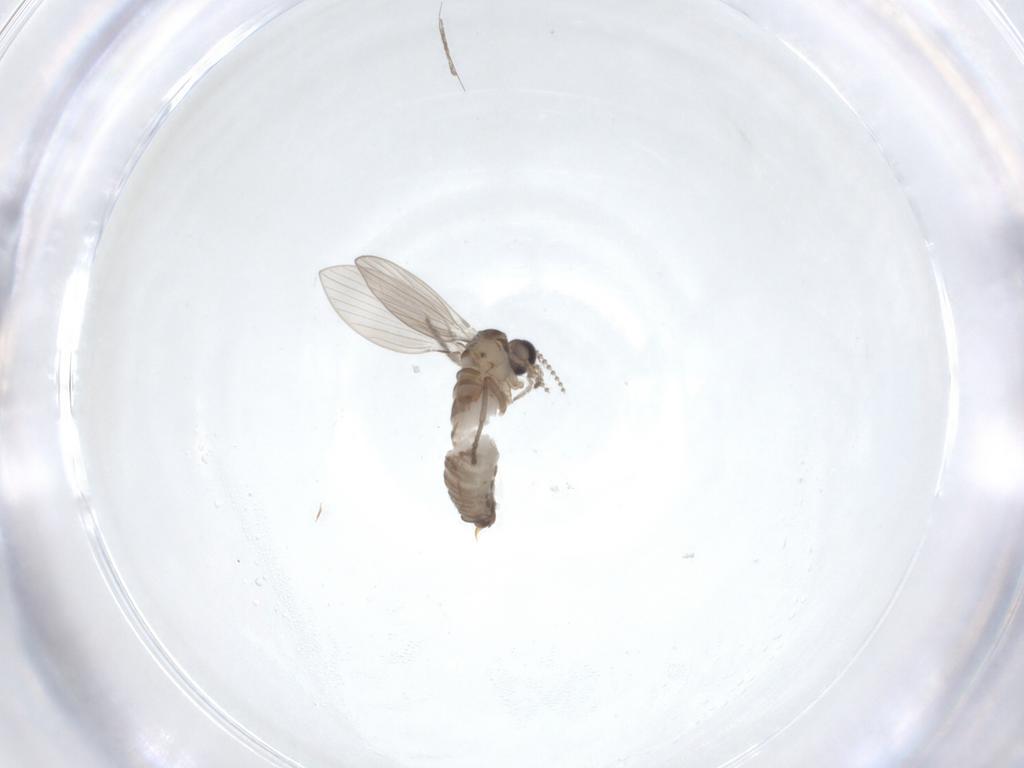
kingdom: Animalia
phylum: Arthropoda
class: Insecta
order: Diptera
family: Psychodidae
